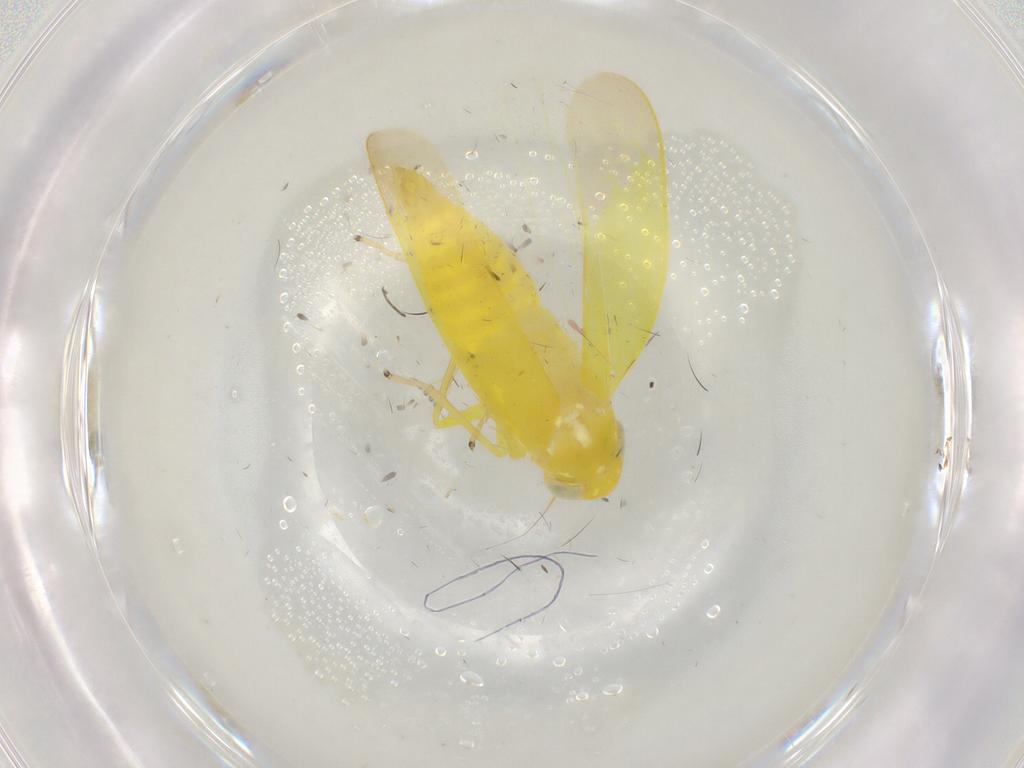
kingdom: Animalia
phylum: Arthropoda
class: Insecta
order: Hemiptera
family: Cicadellidae
